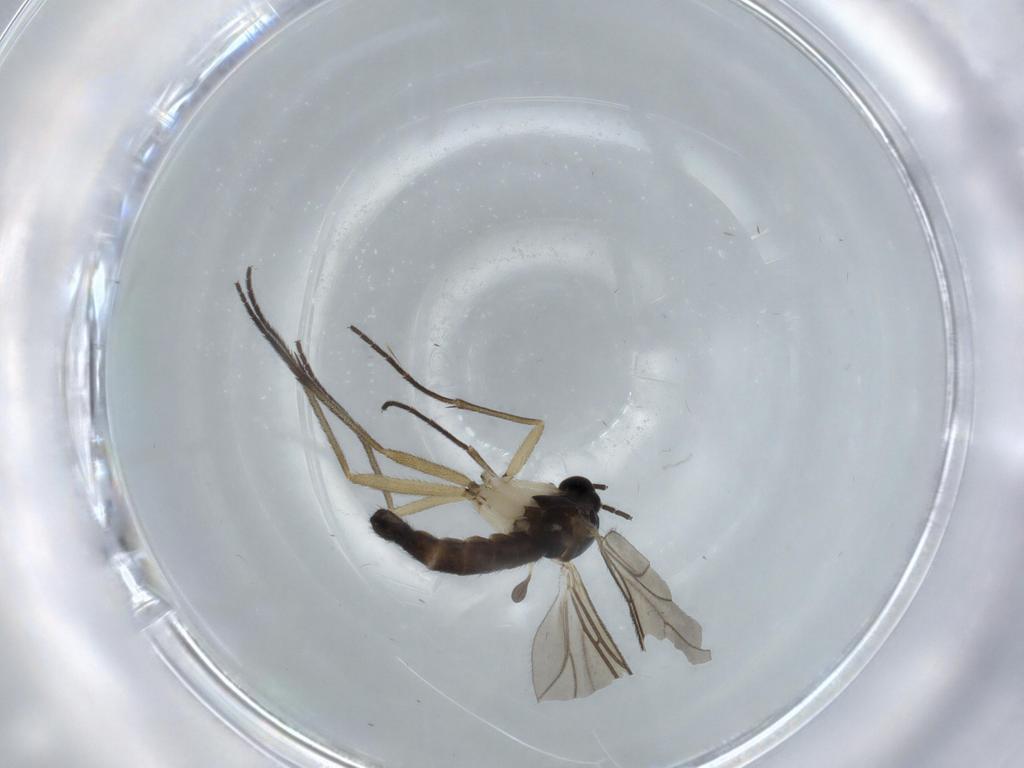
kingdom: Animalia
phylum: Arthropoda
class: Insecta
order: Diptera
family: Sciaridae
